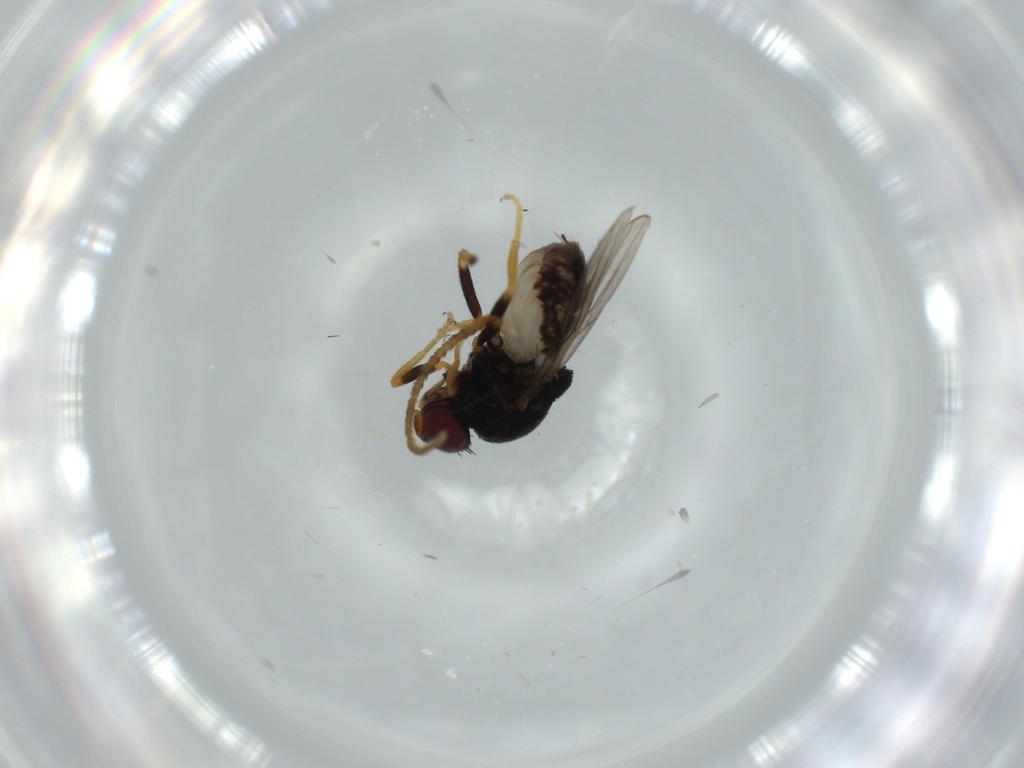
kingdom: Animalia
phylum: Arthropoda
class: Insecta
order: Diptera
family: Chloropidae
